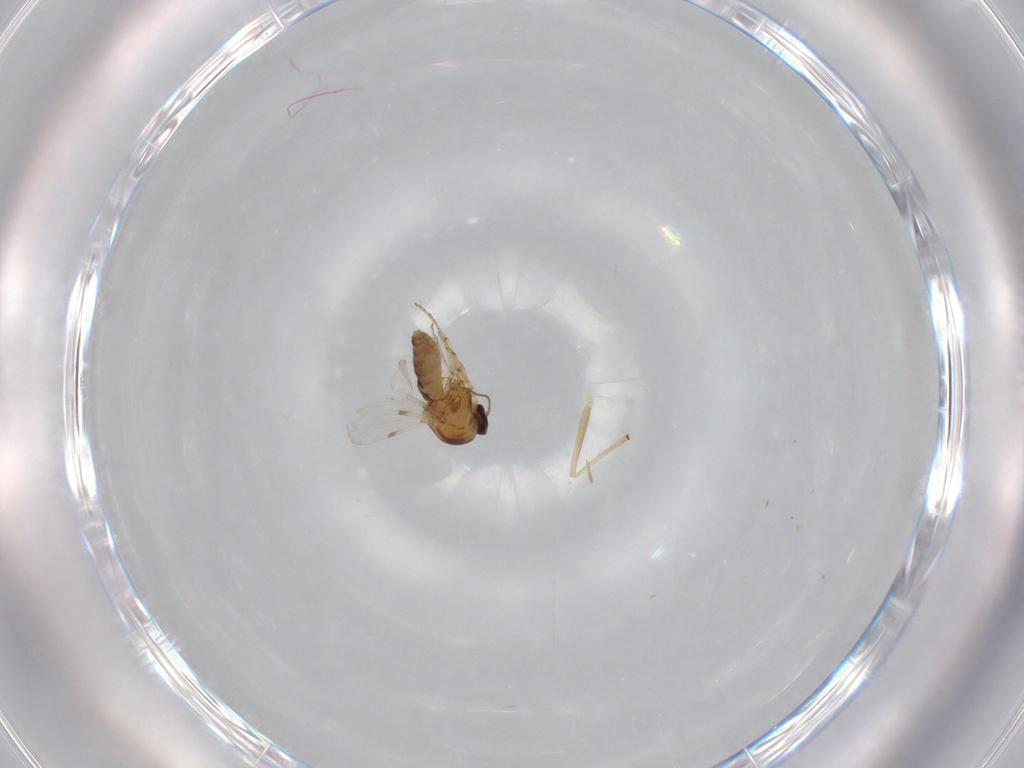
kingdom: Animalia
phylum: Arthropoda
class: Insecta
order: Diptera
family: Ceratopogonidae
